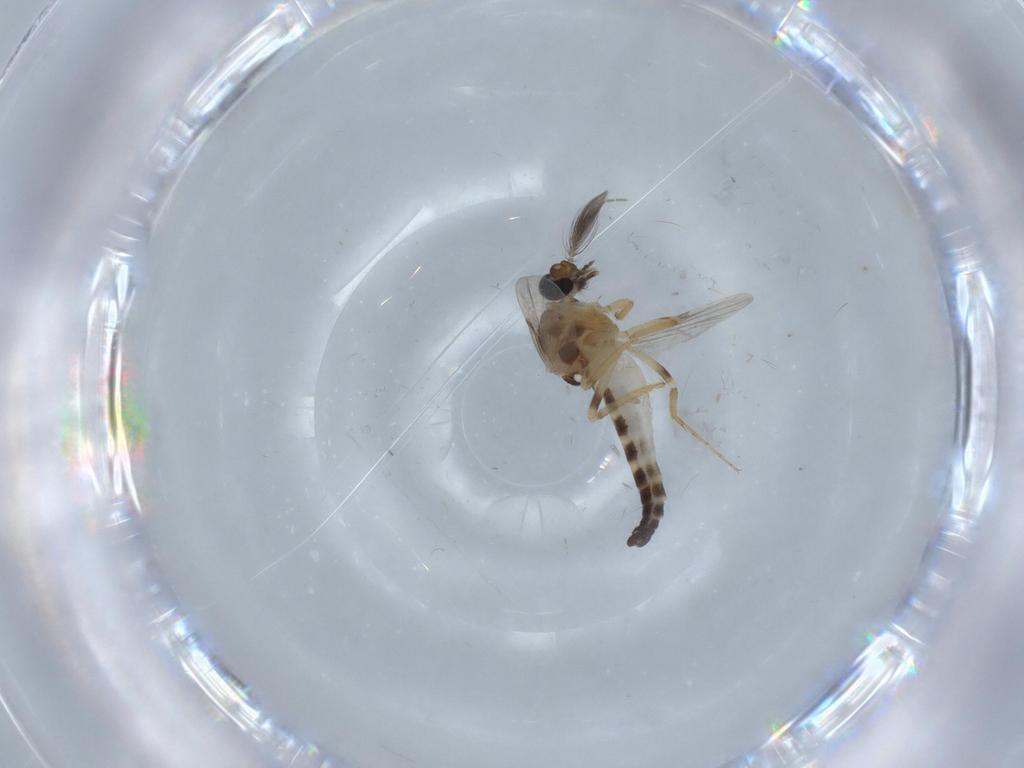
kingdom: Animalia
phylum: Arthropoda
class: Insecta
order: Diptera
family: Ceratopogonidae
